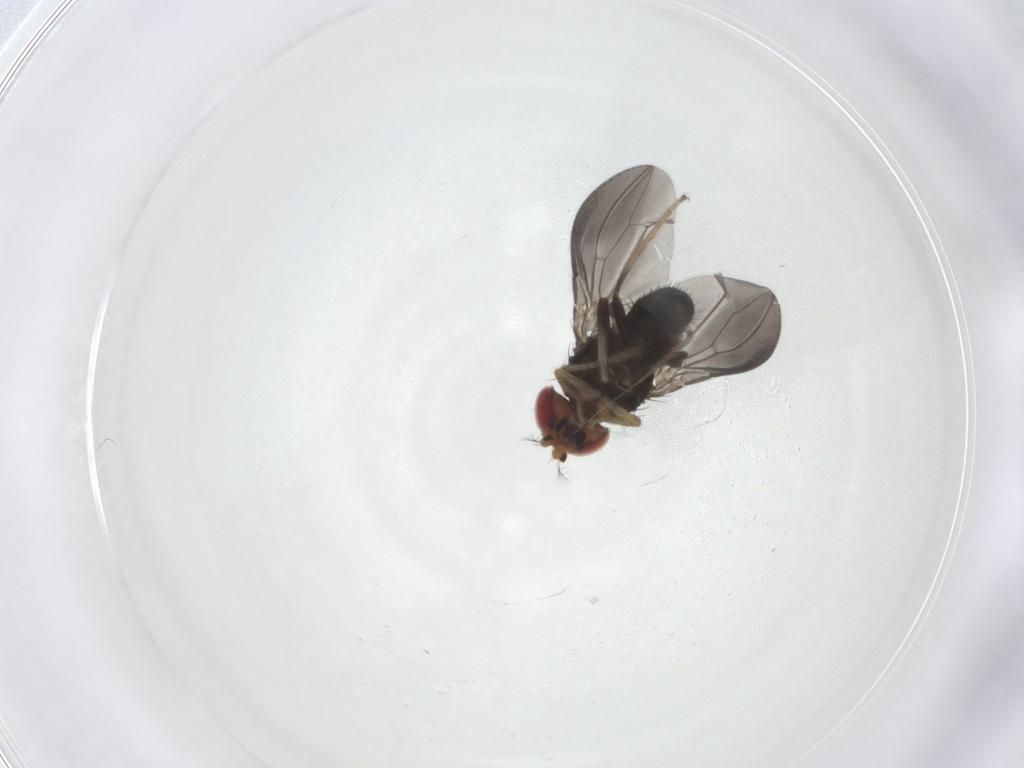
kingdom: Animalia
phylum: Arthropoda
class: Insecta
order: Diptera
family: Drosophilidae
